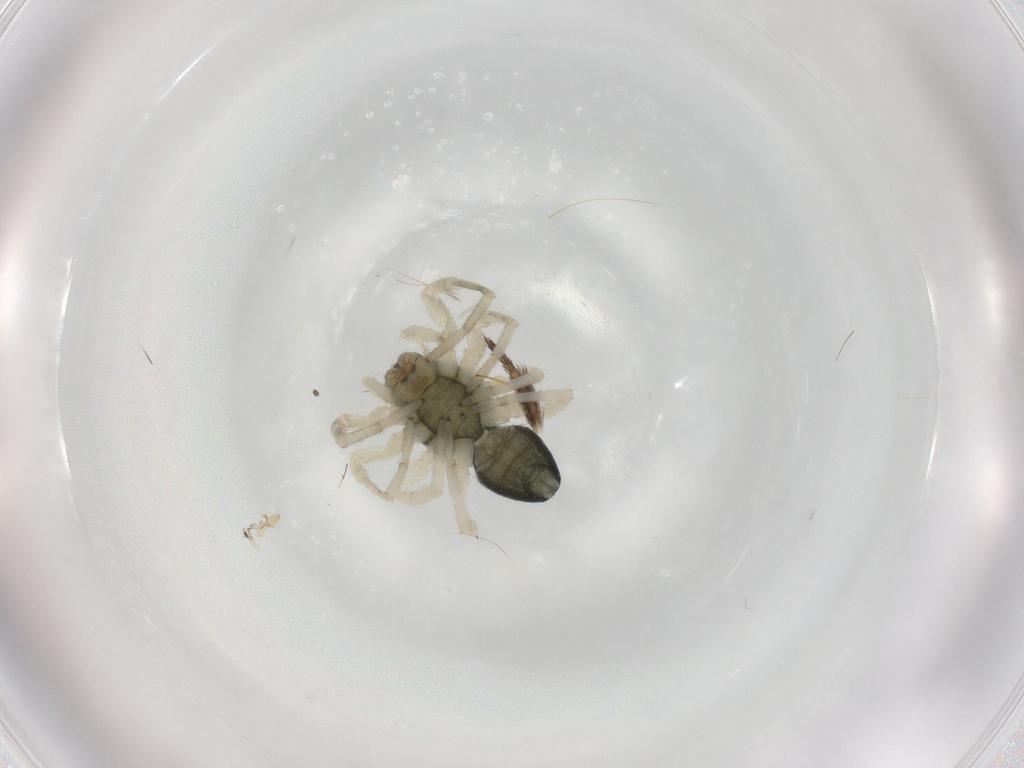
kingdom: Animalia
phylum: Arthropoda
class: Arachnida
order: Araneae
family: Trachelidae
